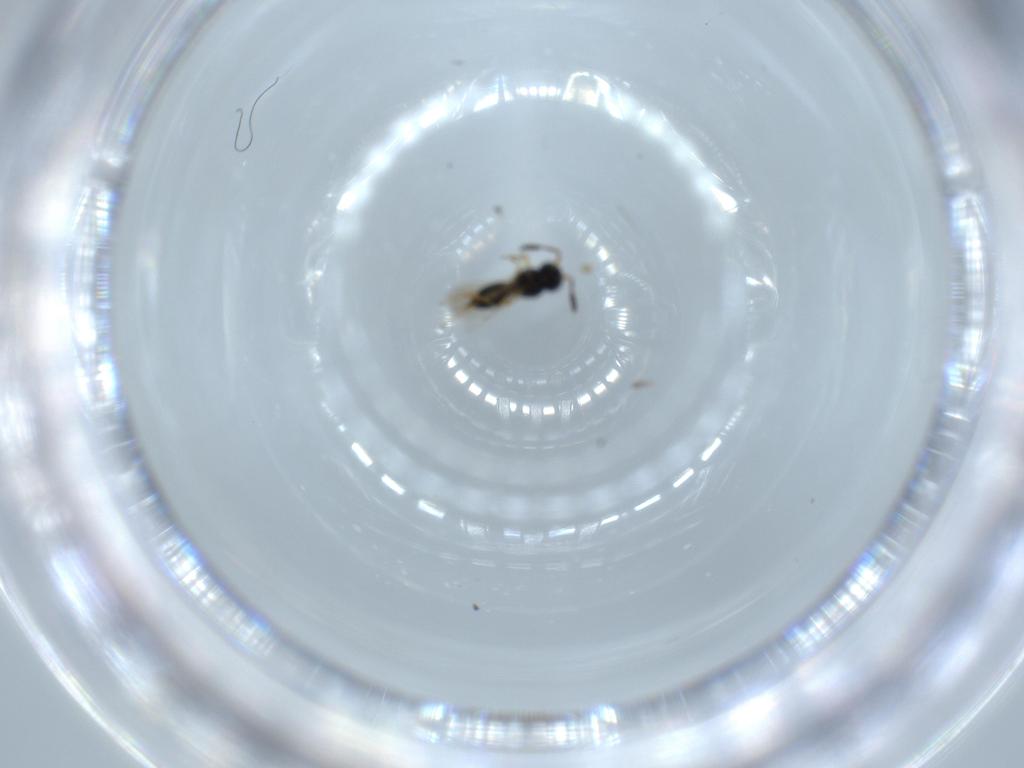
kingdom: Animalia
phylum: Arthropoda
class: Insecta
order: Hymenoptera
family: Scelionidae
